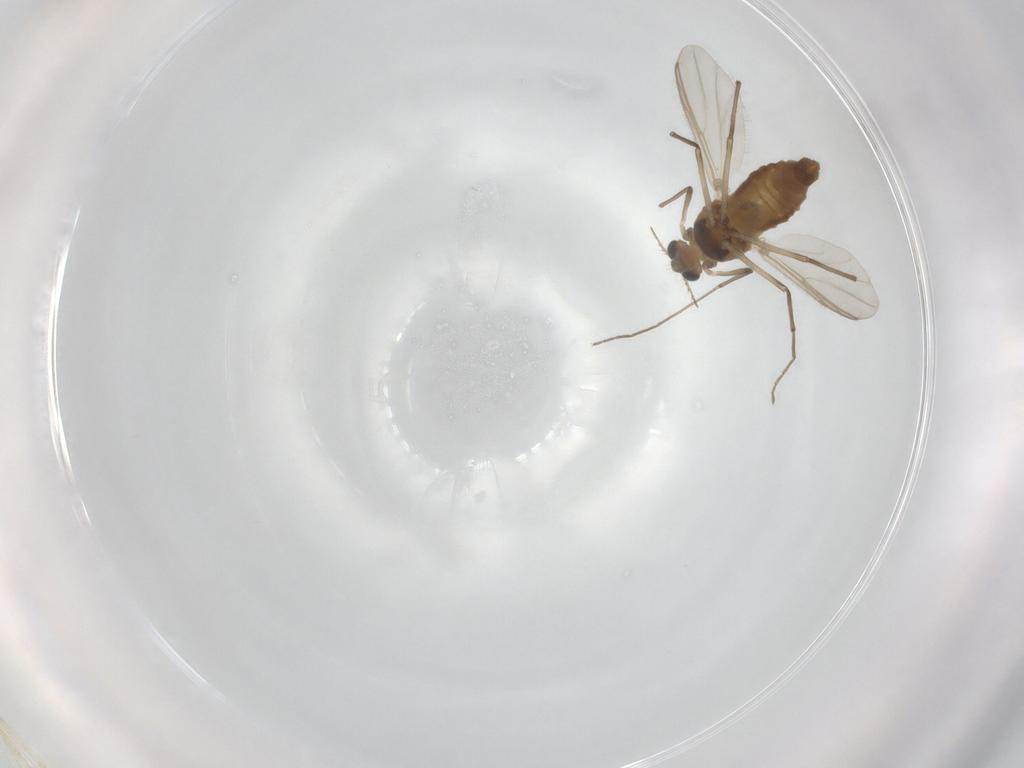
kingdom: Animalia
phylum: Arthropoda
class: Insecta
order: Diptera
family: Chironomidae
